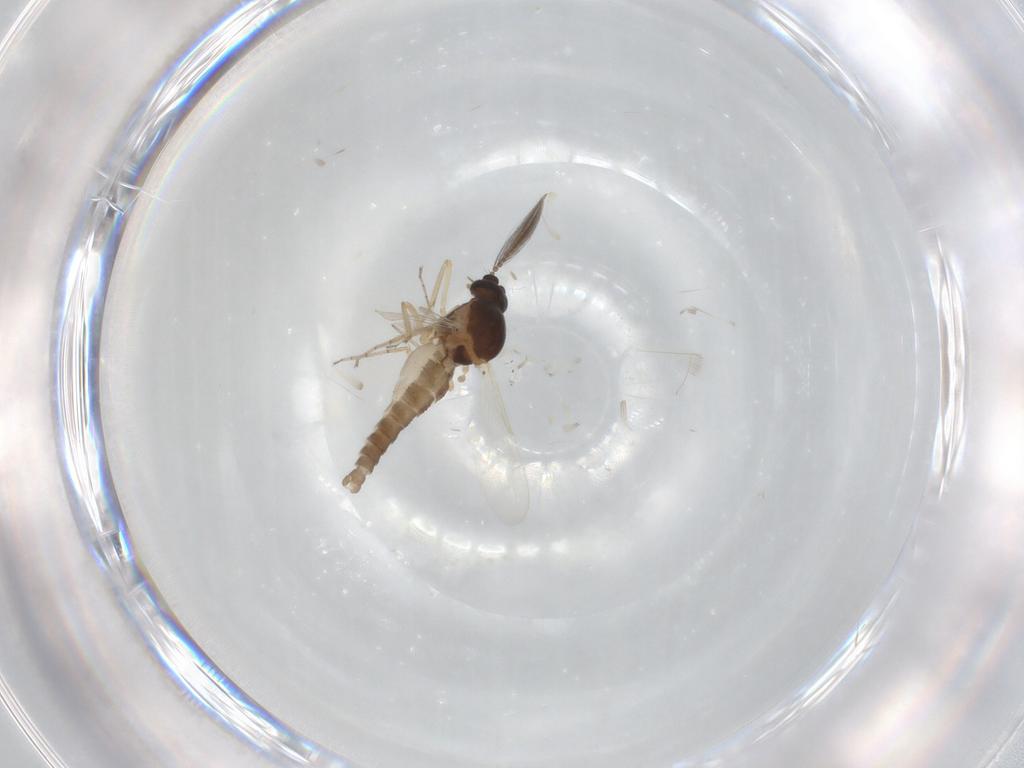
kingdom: Animalia
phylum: Arthropoda
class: Insecta
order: Diptera
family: Ceratopogonidae
